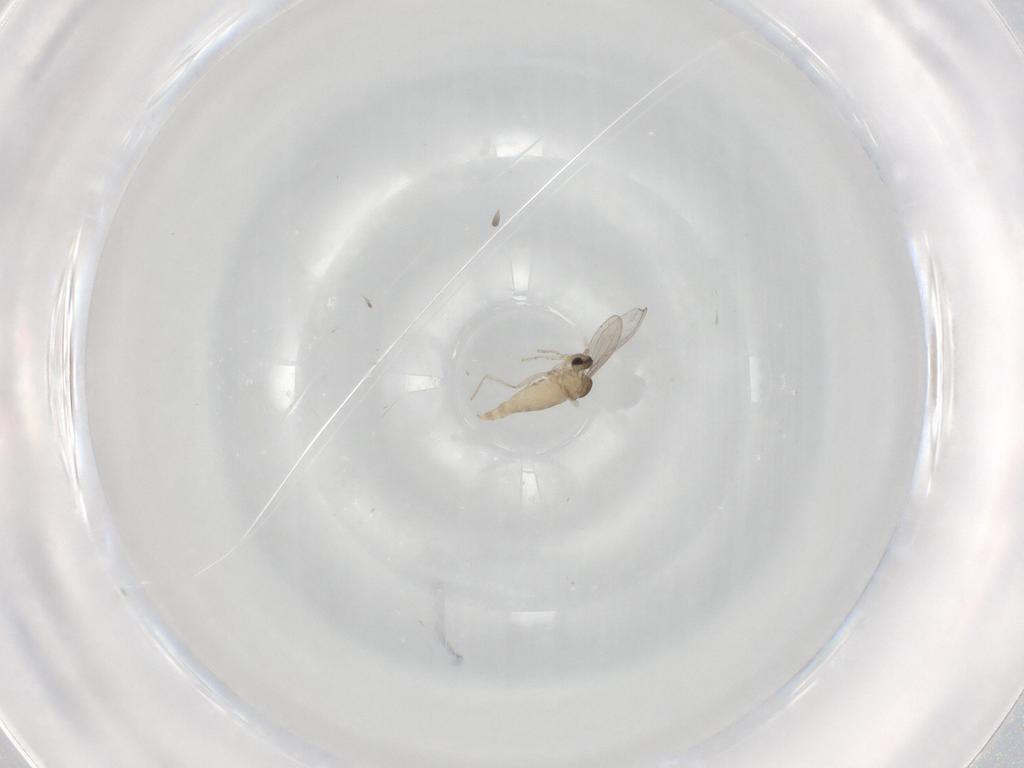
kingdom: Animalia
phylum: Arthropoda
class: Insecta
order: Diptera
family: Cecidomyiidae
